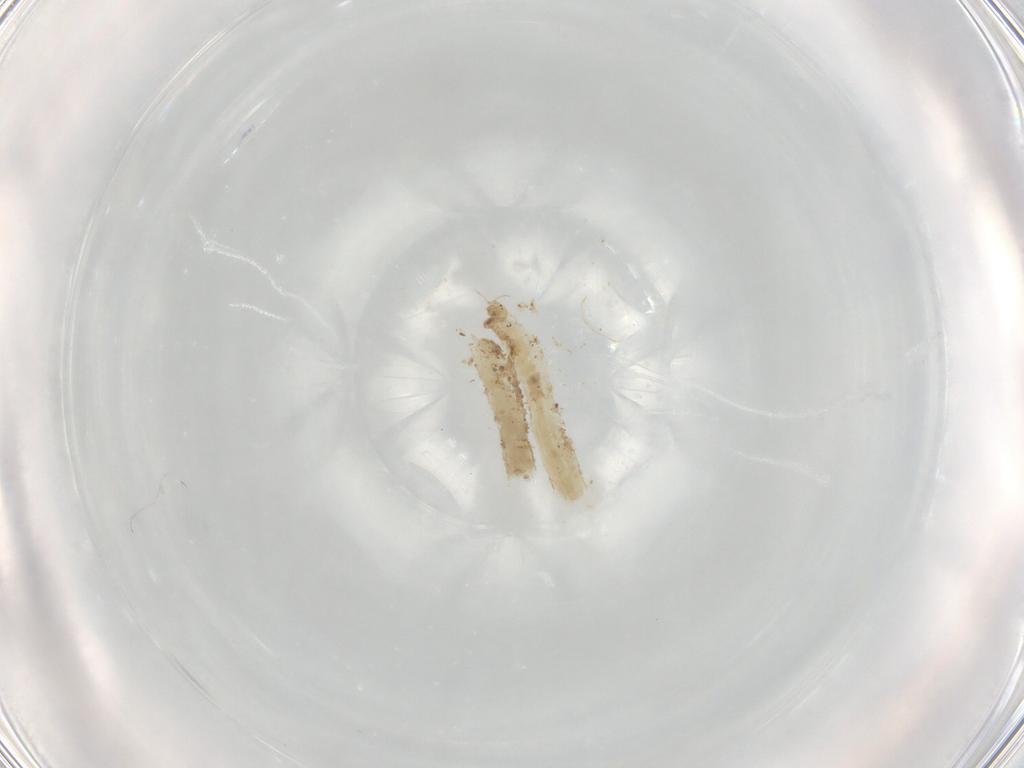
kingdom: Animalia
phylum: Arthropoda
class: Insecta
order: Diptera
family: Chironomidae
